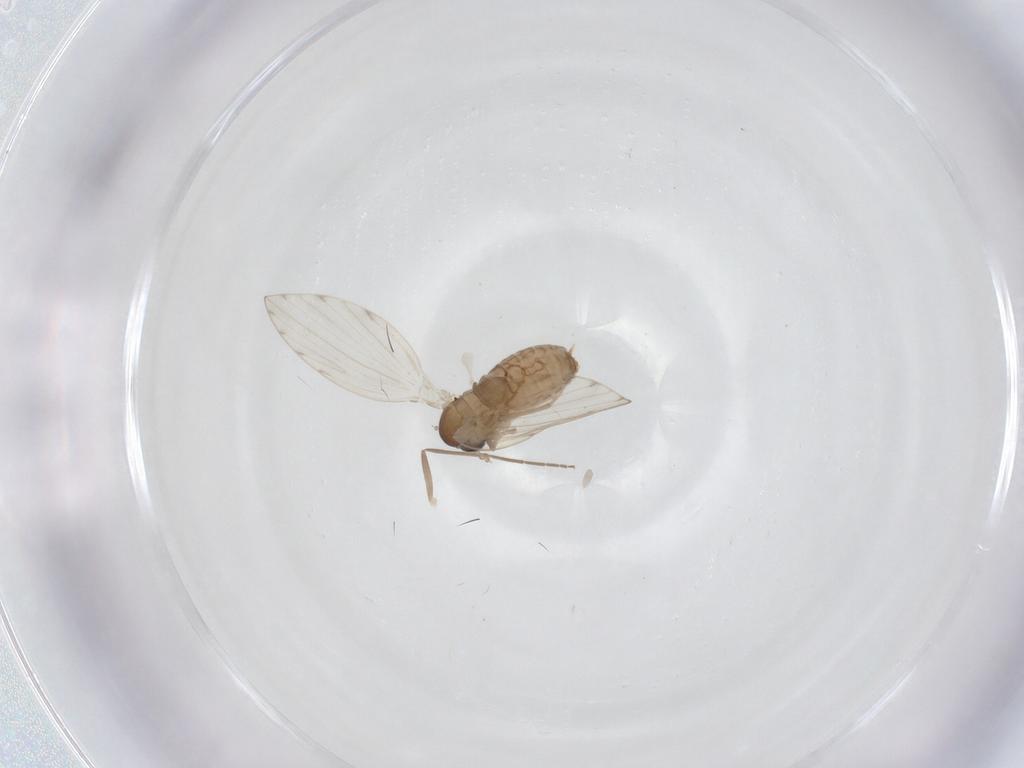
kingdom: Animalia
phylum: Arthropoda
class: Insecta
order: Diptera
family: Psychodidae
